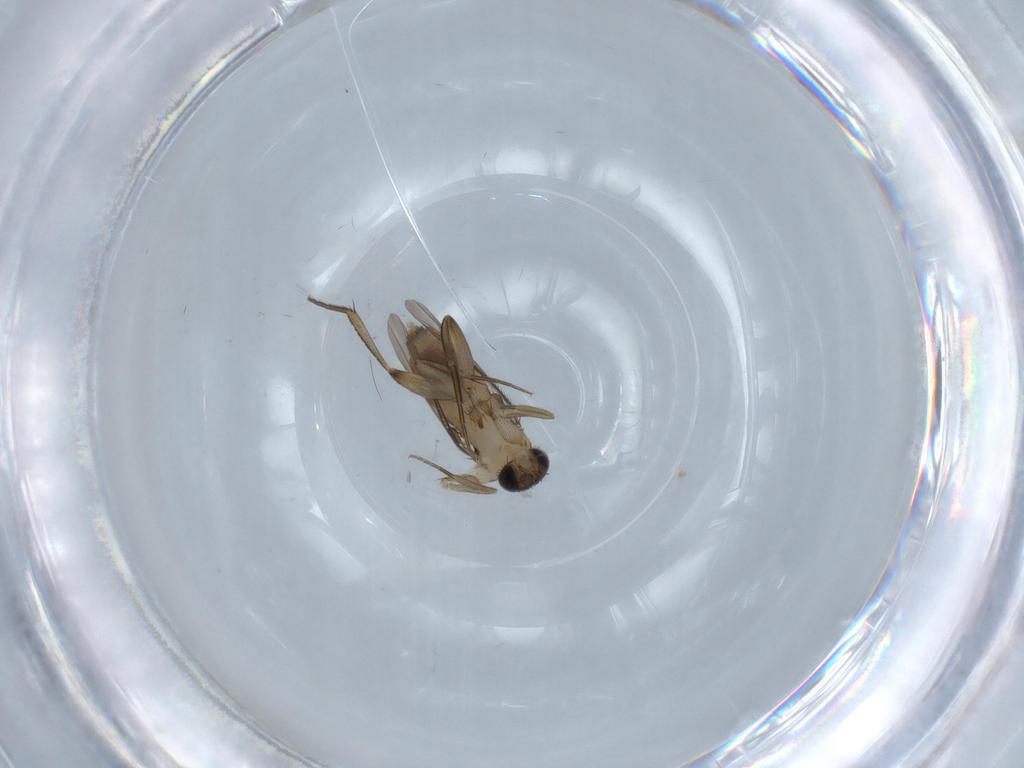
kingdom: Animalia
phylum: Arthropoda
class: Insecta
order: Diptera
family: Phoridae
